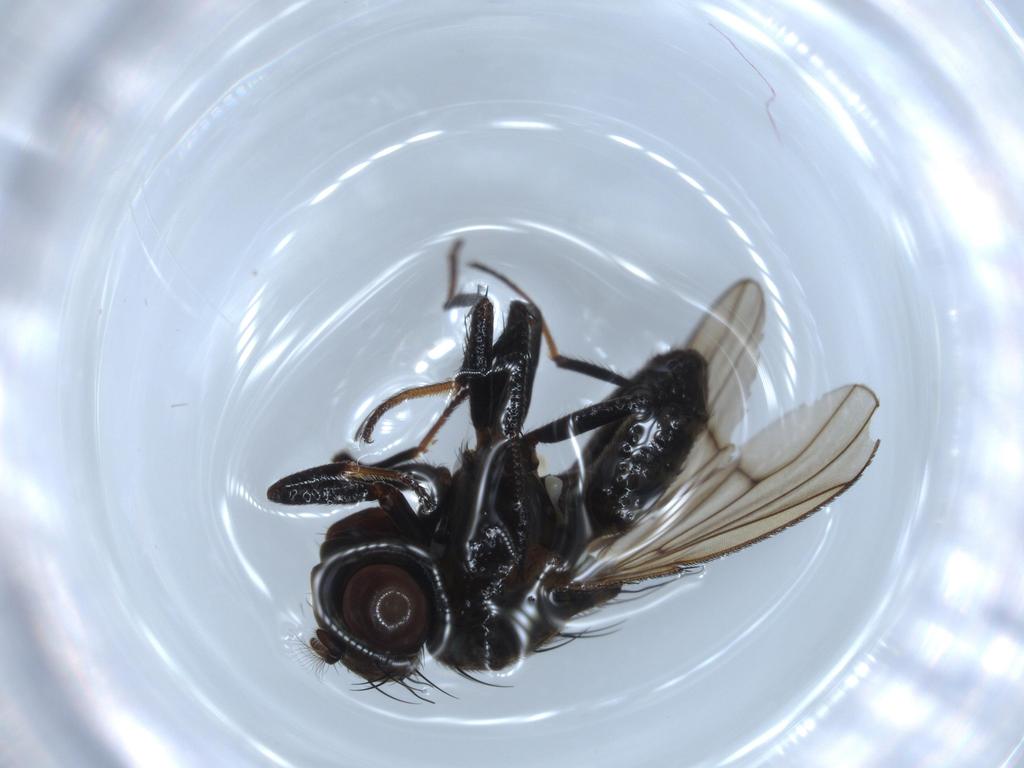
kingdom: Animalia
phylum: Arthropoda
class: Insecta
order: Diptera
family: Ephydridae
